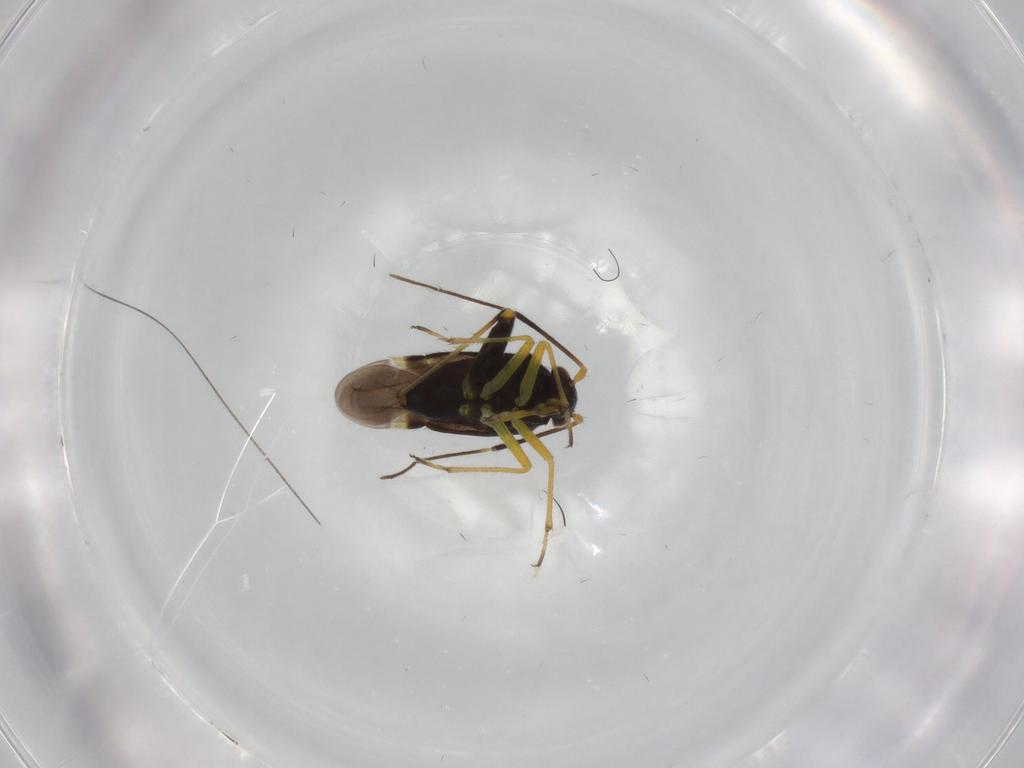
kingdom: Animalia
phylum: Arthropoda
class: Insecta
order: Hemiptera
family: Miridae
